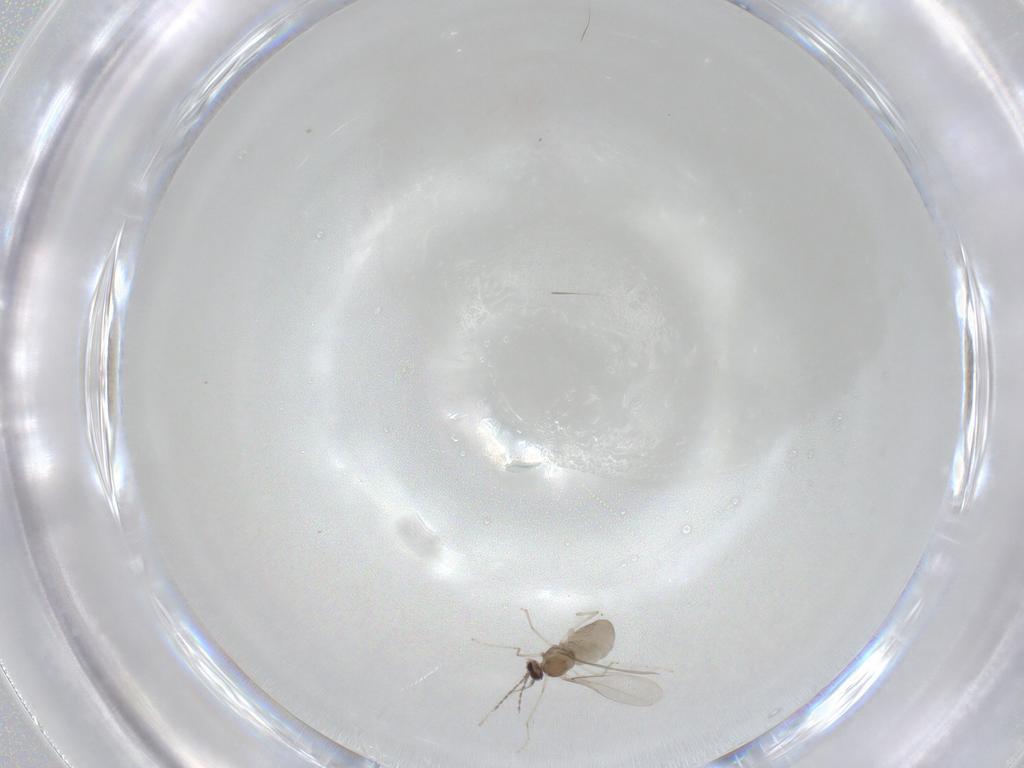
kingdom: Animalia
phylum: Arthropoda
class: Insecta
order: Diptera
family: Cecidomyiidae
